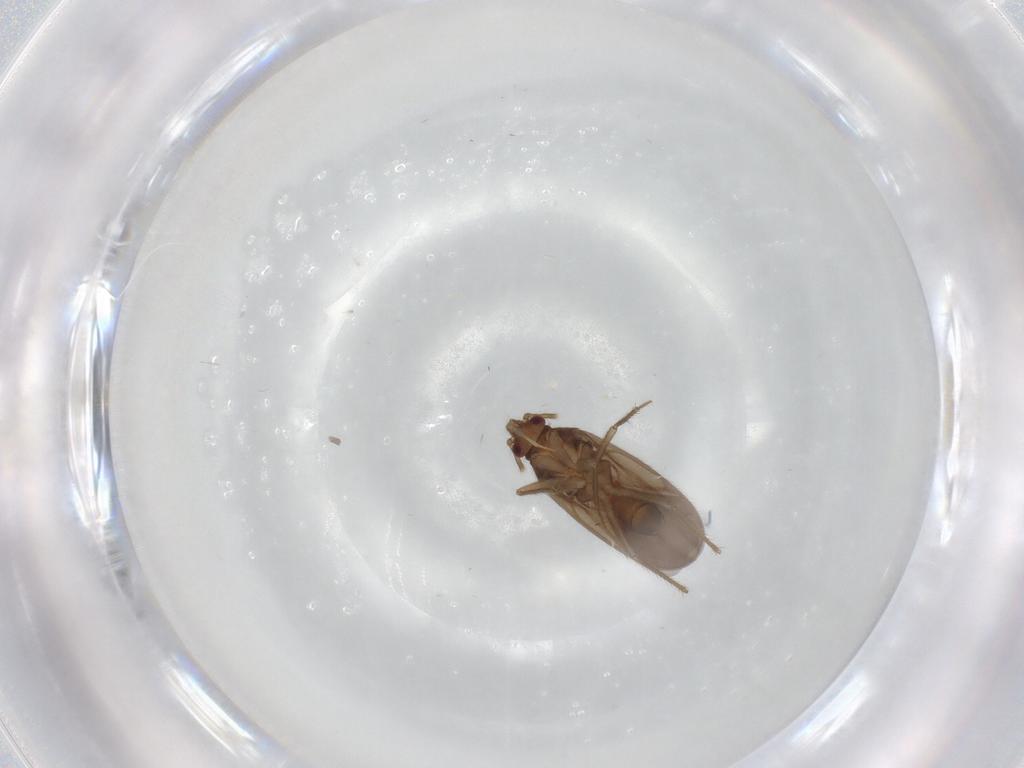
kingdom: Animalia
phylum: Arthropoda
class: Insecta
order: Hemiptera
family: Ceratocombidae
